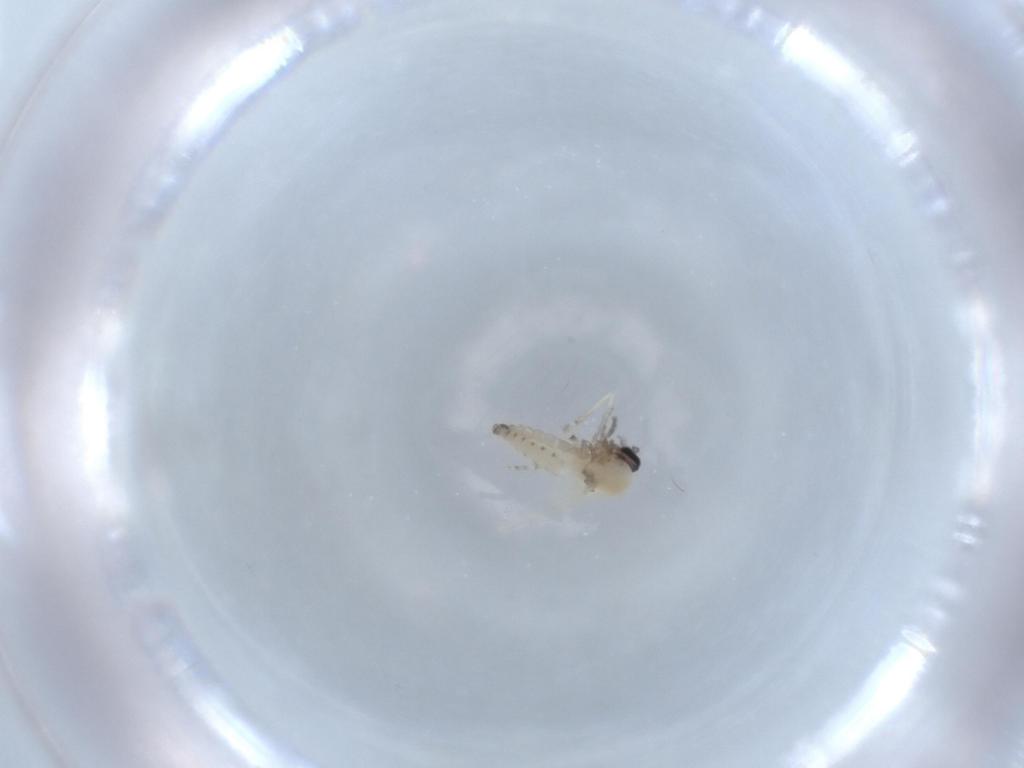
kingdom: Animalia
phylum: Arthropoda
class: Insecta
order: Diptera
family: Ceratopogonidae
